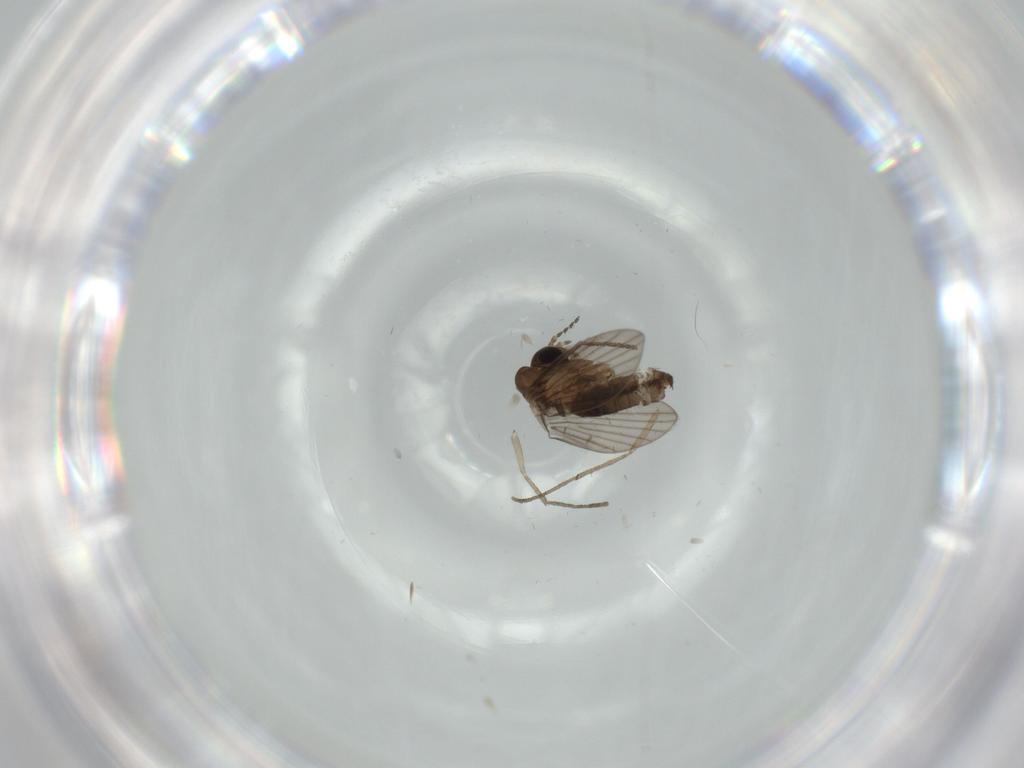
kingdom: Animalia
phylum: Arthropoda
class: Insecta
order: Diptera
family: Psychodidae
